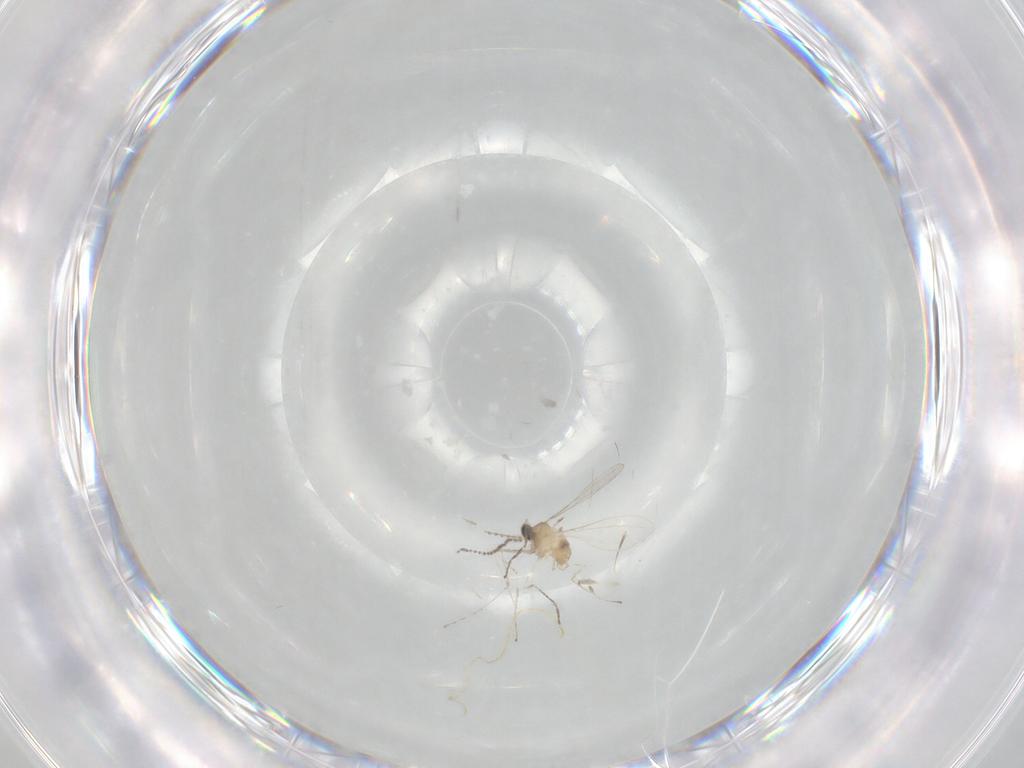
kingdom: Animalia
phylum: Arthropoda
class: Insecta
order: Diptera
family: Cecidomyiidae
